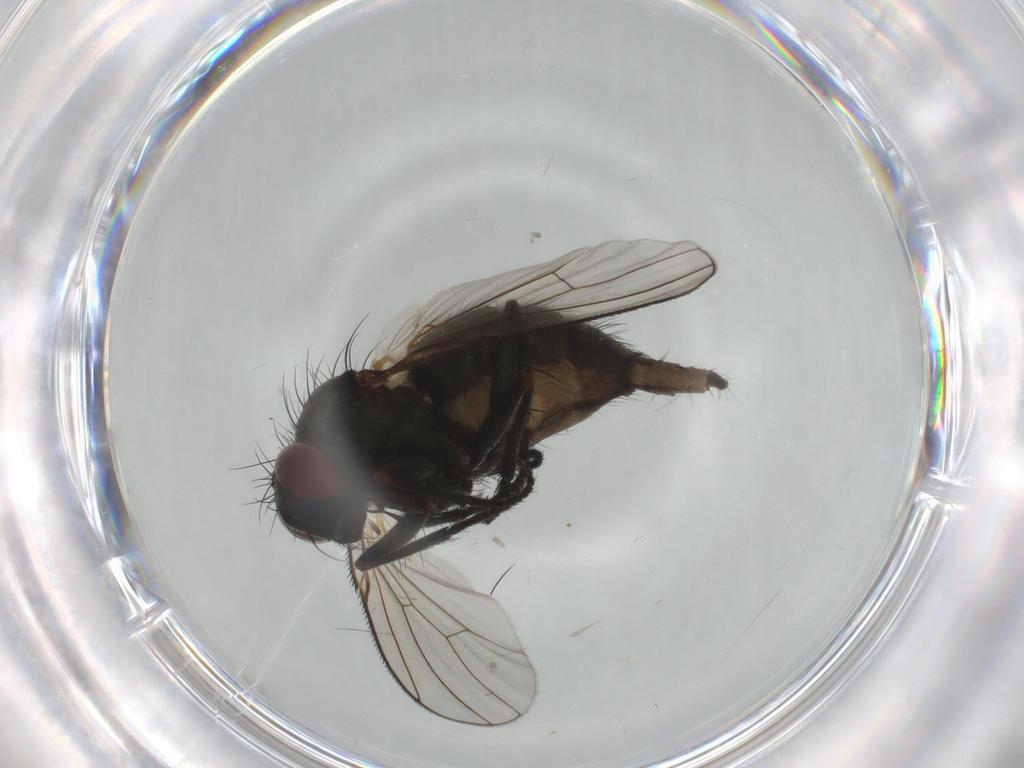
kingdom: Animalia
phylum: Arthropoda
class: Insecta
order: Diptera
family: Muscidae
